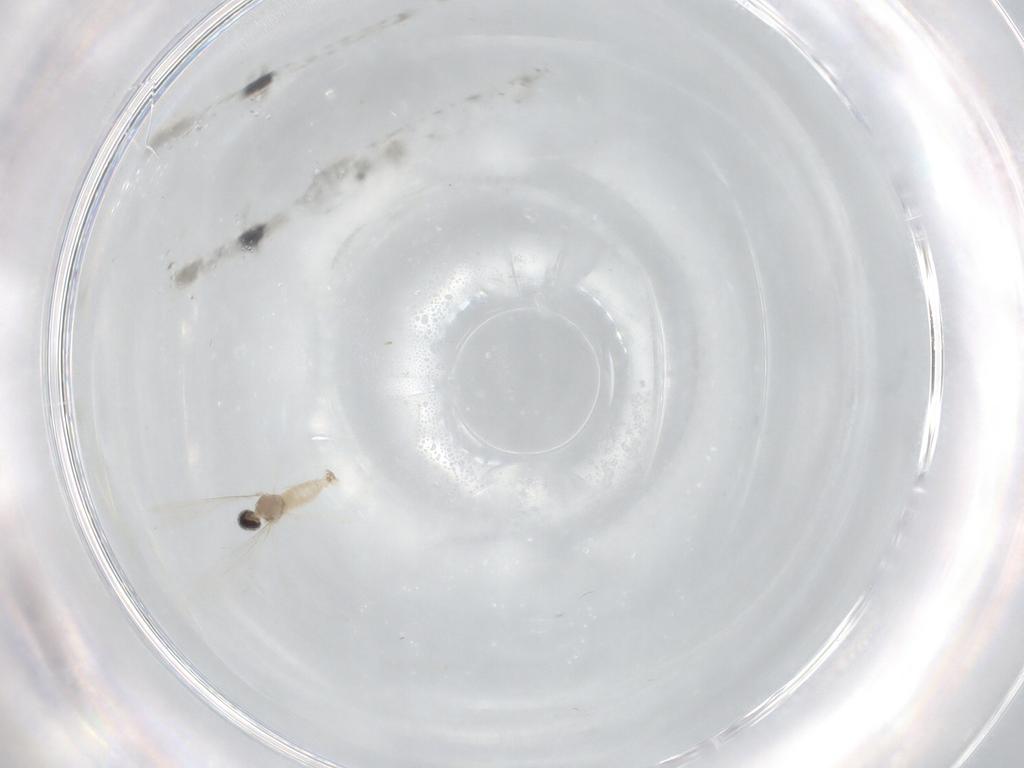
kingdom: Animalia
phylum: Arthropoda
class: Insecta
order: Diptera
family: Cecidomyiidae
